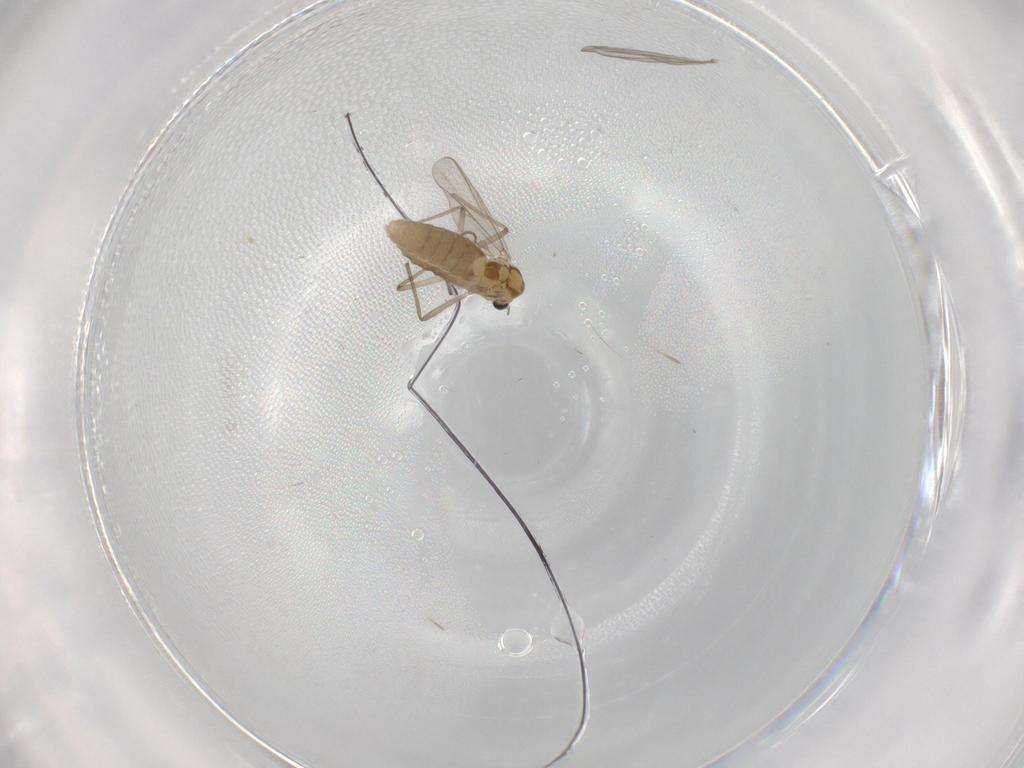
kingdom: Animalia
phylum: Arthropoda
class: Insecta
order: Diptera
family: Chironomidae
